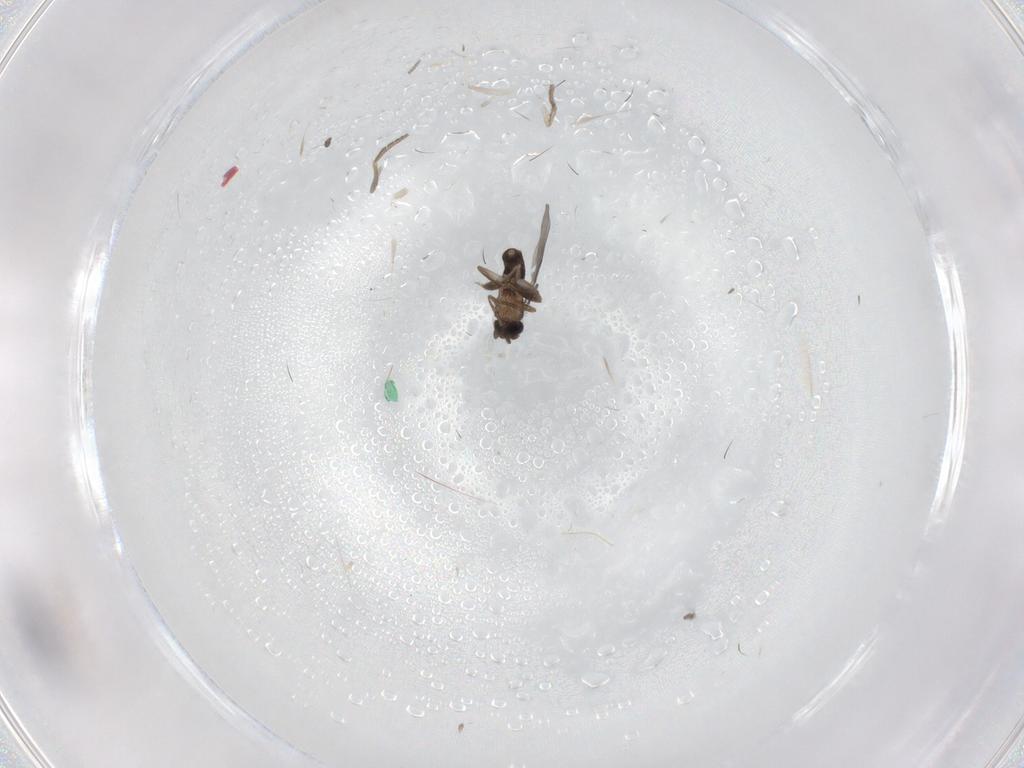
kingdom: Animalia
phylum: Arthropoda
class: Insecta
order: Diptera
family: Psychodidae
